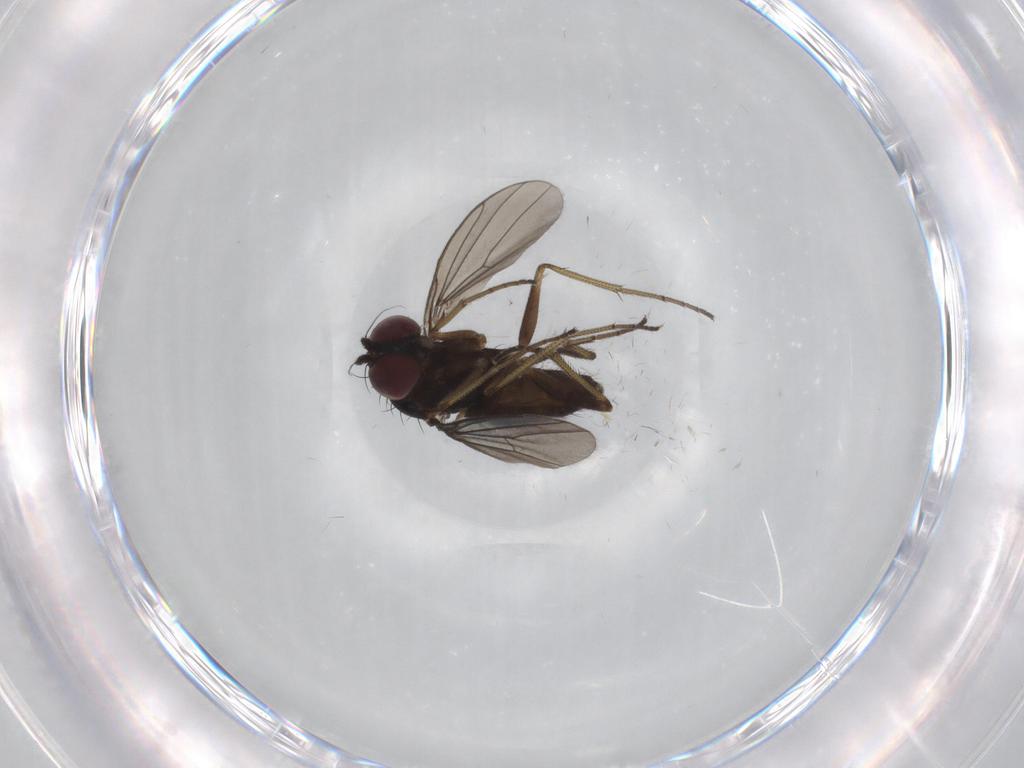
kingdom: Animalia
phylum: Arthropoda
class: Insecta
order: Diptera
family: Dolichopodidae
